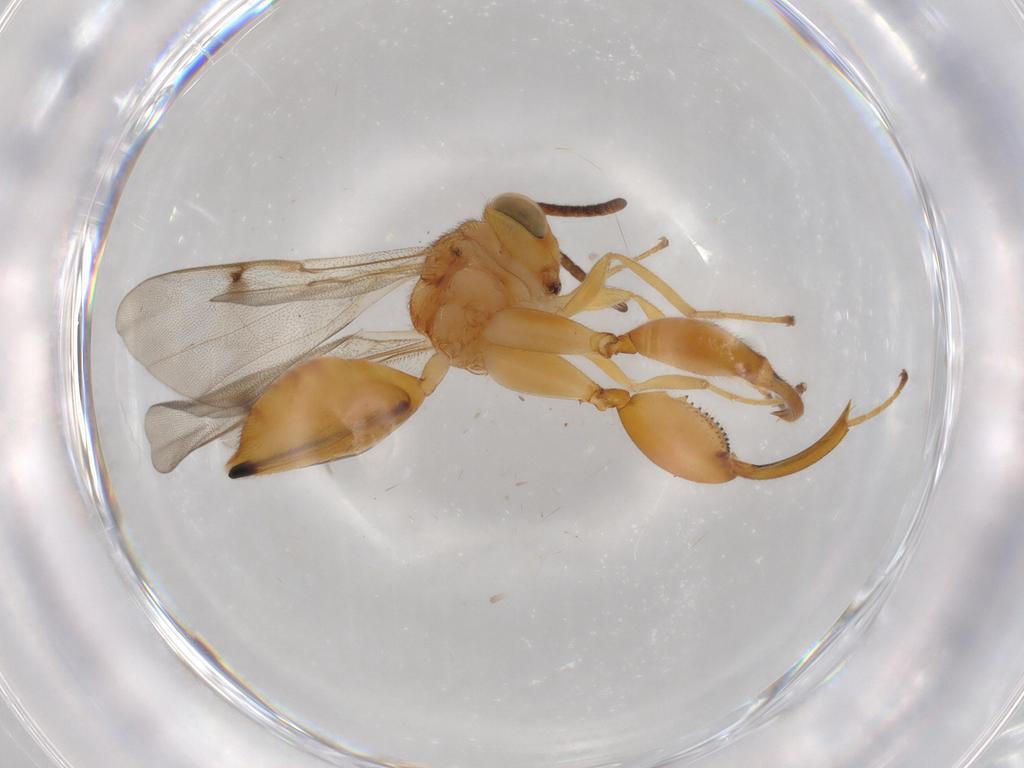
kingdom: Animalia
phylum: Arthropoda
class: Insecta
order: Hymenoptera
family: Chalcididae
